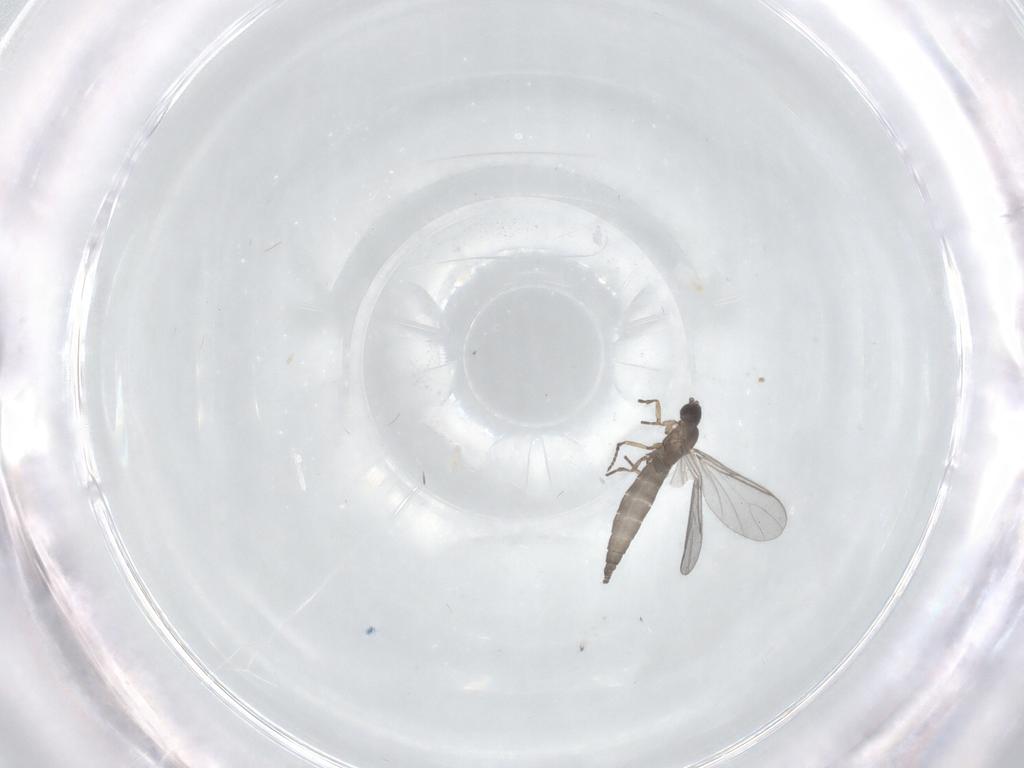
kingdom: Animalia
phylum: Arthropoda
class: Insecta
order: Diptera
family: Sciaridae
